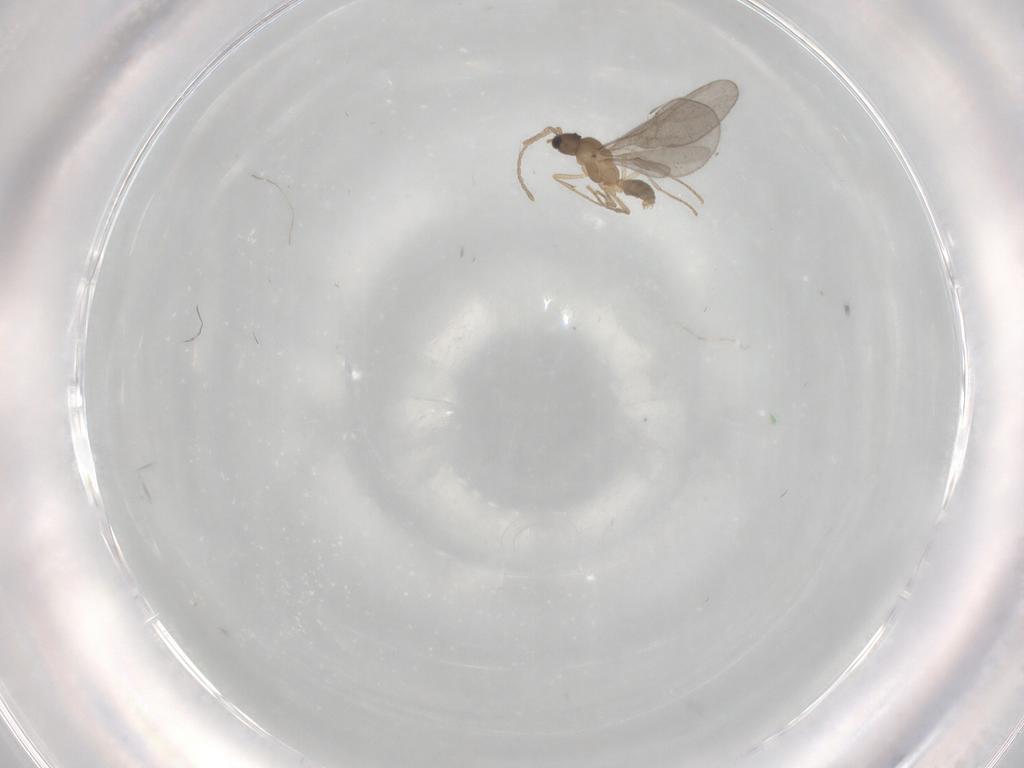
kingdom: Animalia
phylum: Arthropoda
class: Insecta
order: Hymenoptera
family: Formicidae
